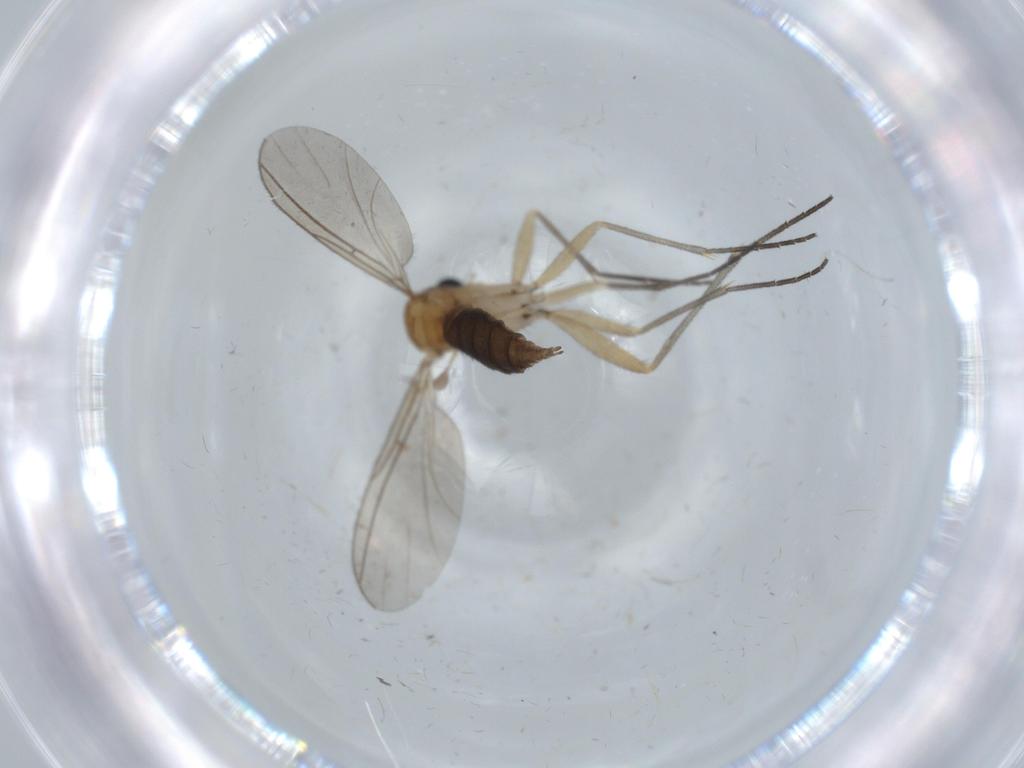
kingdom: Animalia
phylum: Arthropoda
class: Insecta
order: Diptera
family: Sciaridae
